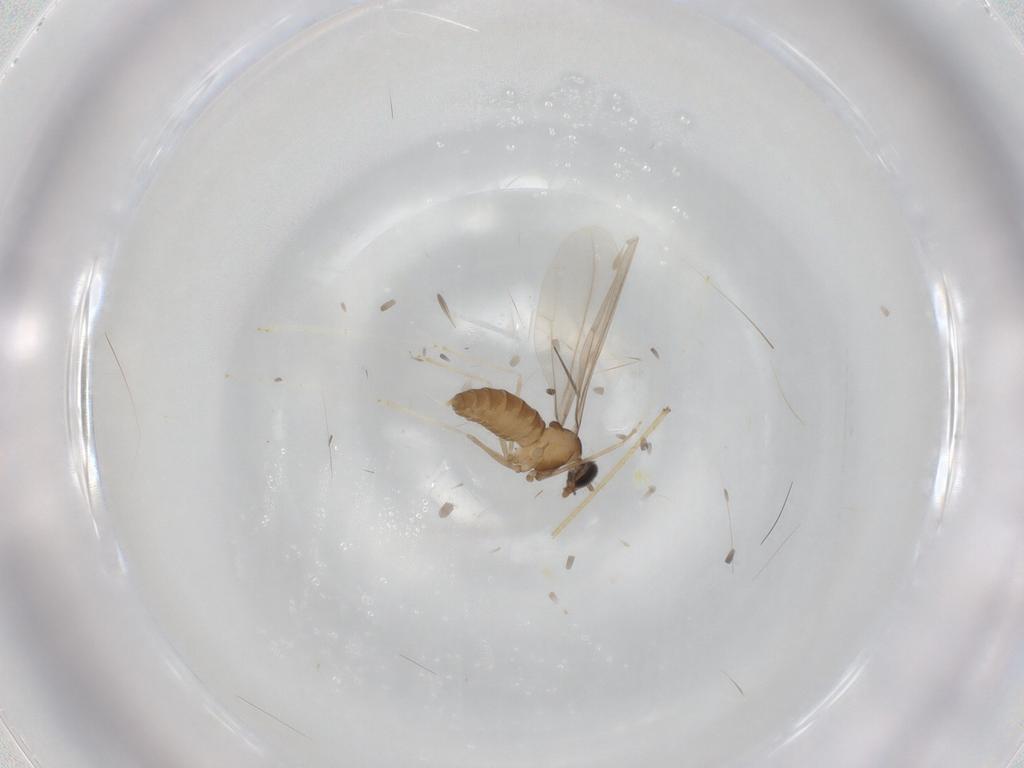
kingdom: Animalia
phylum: Arthropoda
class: Insecta
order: Diptera
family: Cecidomyiidae
